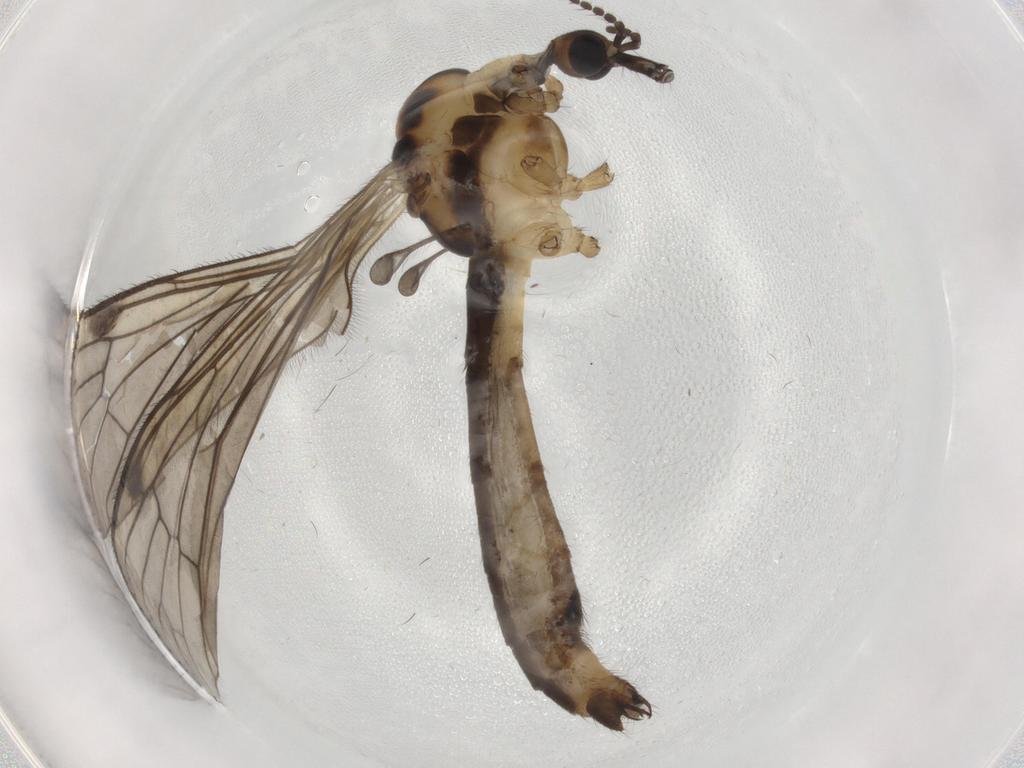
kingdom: Animalia
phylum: Arthropoda
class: Insecta
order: Diptera
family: Limoniidae
